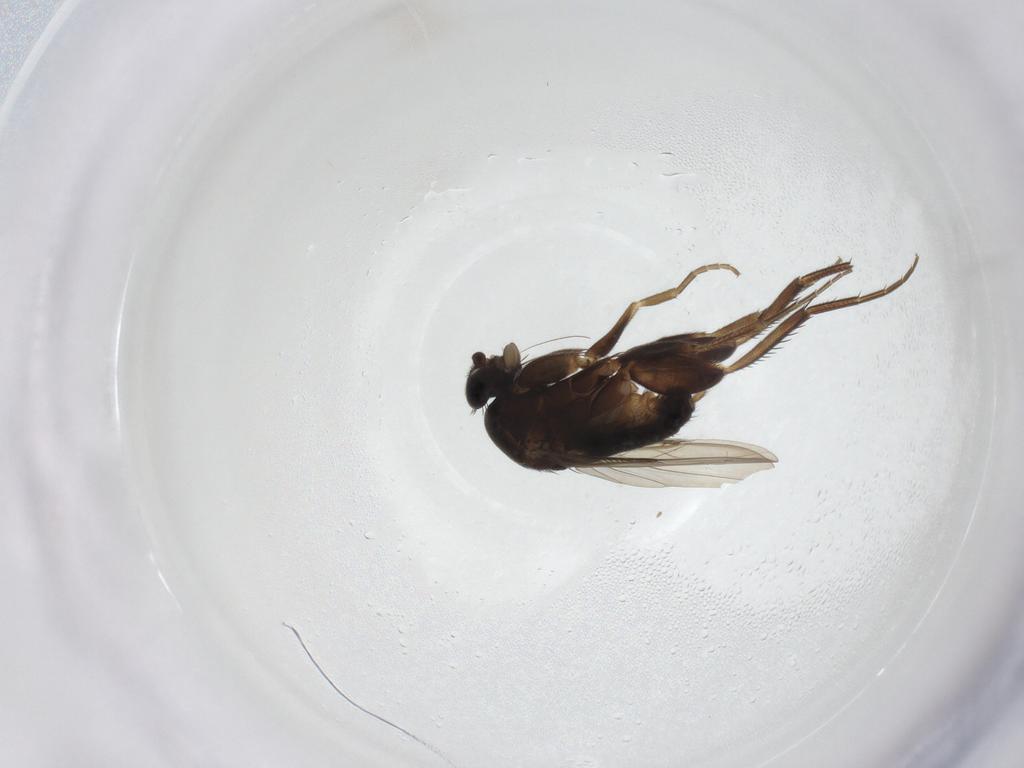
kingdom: Animalia
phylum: Arthropoda
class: Insecta
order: Diptera
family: Phoridae
